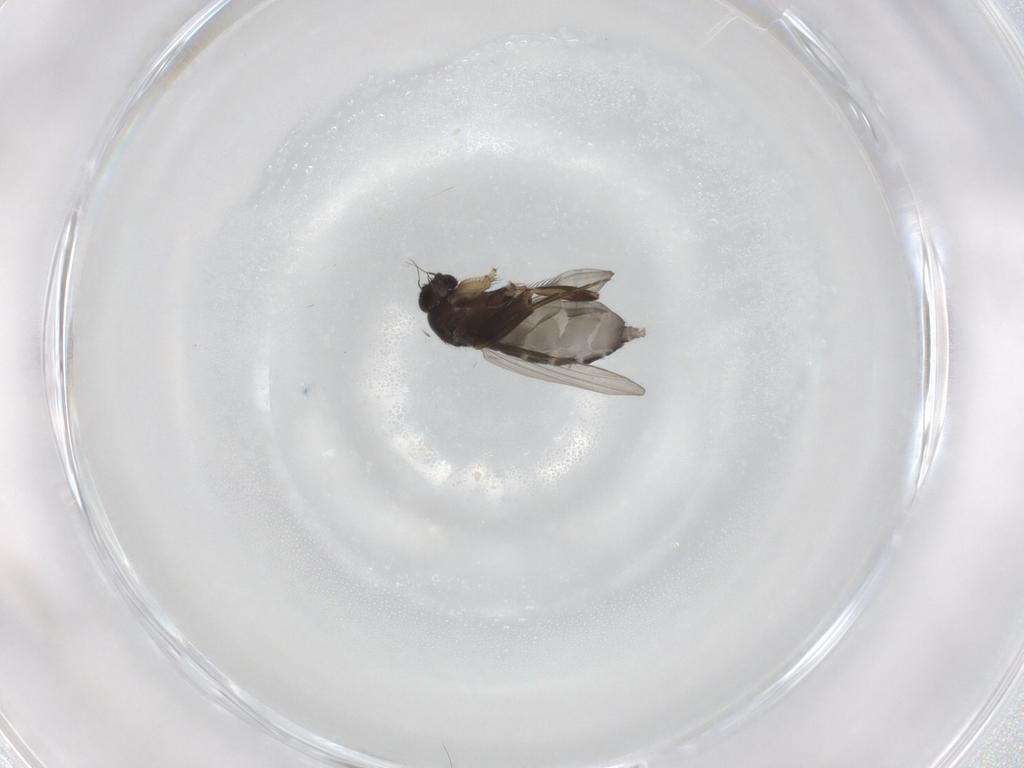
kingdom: Animalia
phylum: Arthropoda
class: Insecta
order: Diptera
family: Phoridae
